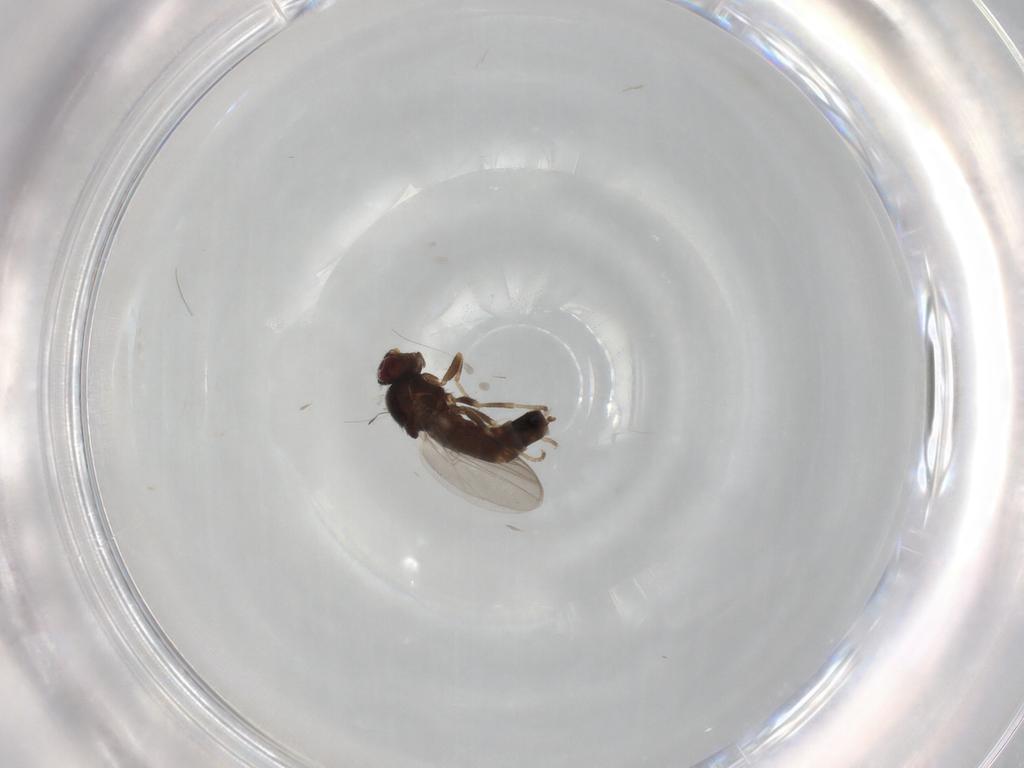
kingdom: Animalia
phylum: Arthropoda
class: Insecta
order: Diptera
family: Chloropidae
